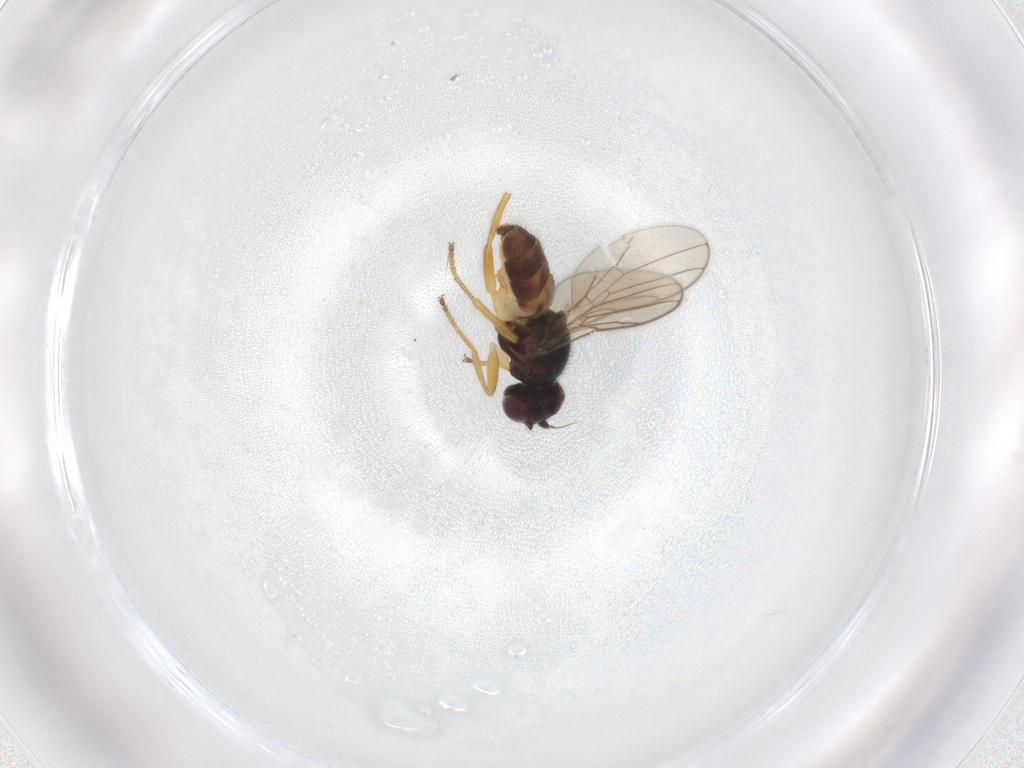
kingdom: Animalia
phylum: Arthropoda
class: Insecta
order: Diptera
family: Chloropidae
